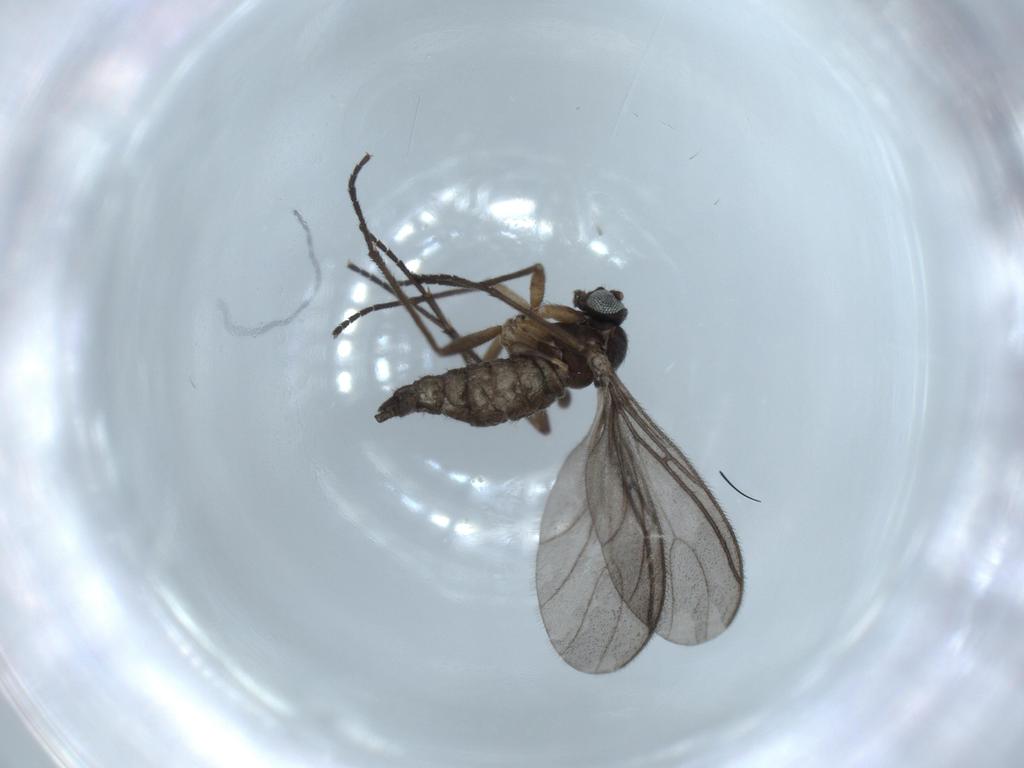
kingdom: Animalia
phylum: Arthropoda
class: Insecta
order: Diptera
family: Sciaridae
